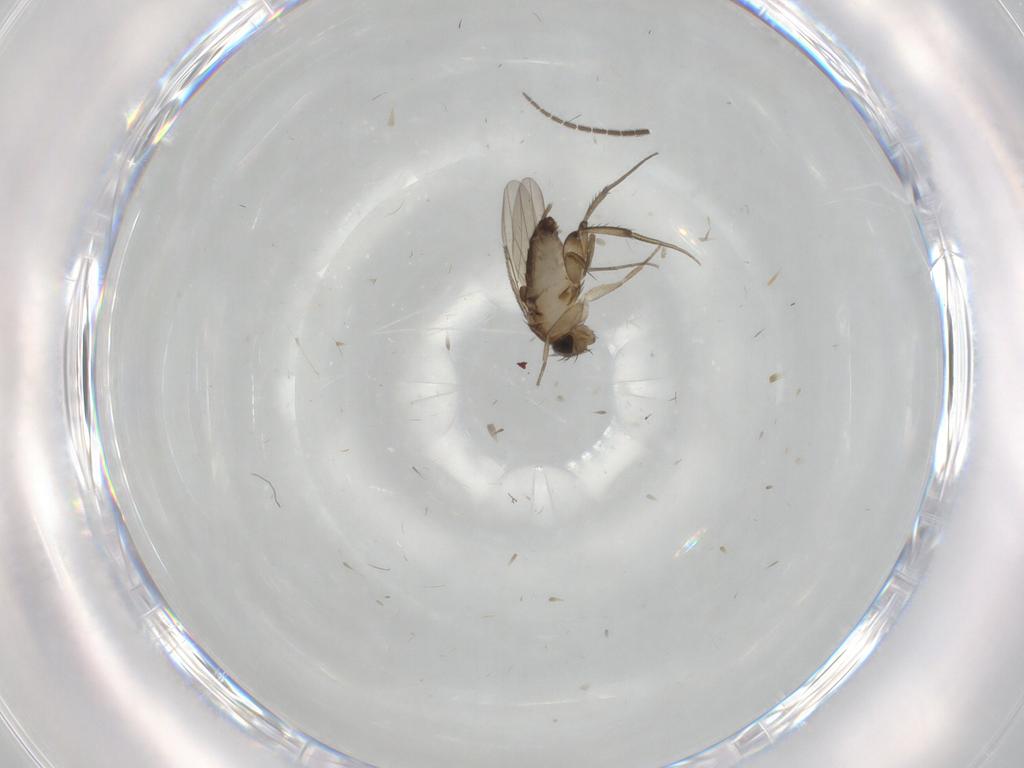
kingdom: Animalia
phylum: Arthropoda
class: Insecta
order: Diptera
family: Phoridae
